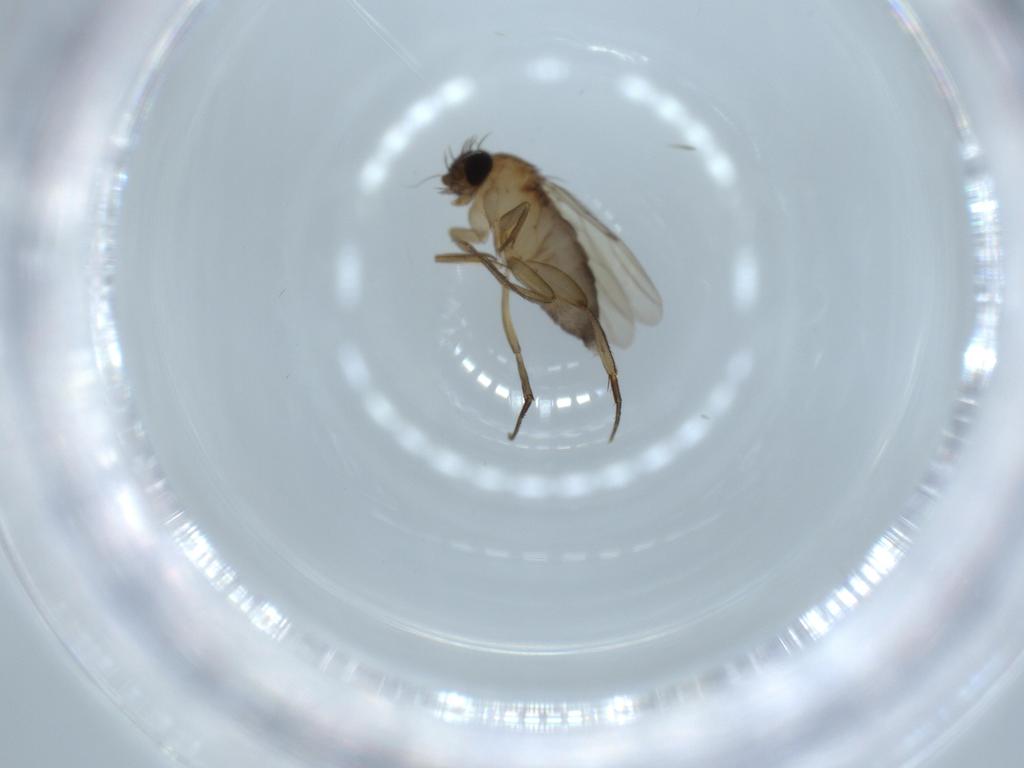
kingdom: Animalia
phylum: Arthropoda
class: Insecta
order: Diptera
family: Phoridae
